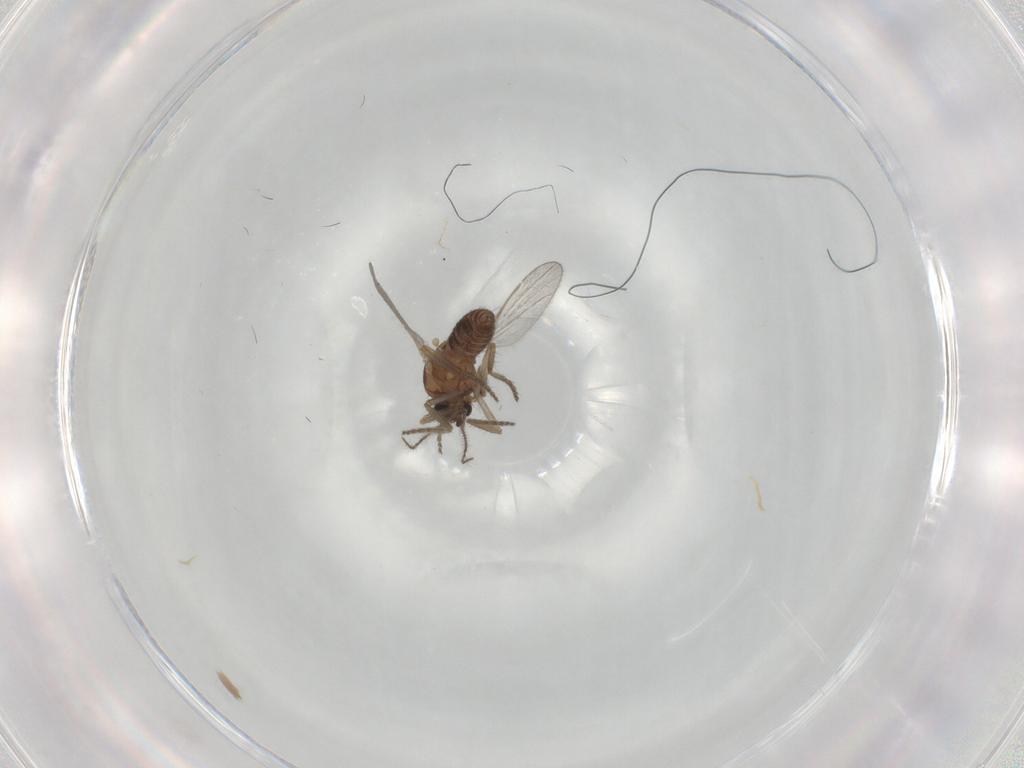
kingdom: Animalia
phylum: Arthropoda
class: Insecta
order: Diptera
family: Ceratopogonidae
